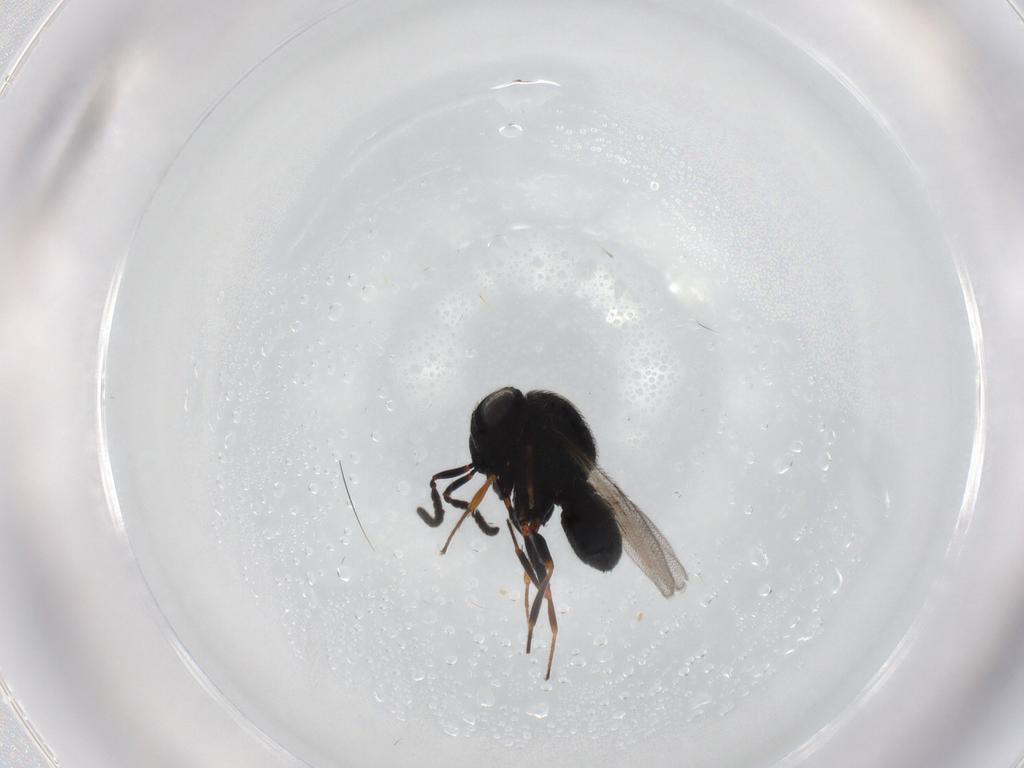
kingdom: Animalia
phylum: Arthropoda
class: Insecta
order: Hymenoptera
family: Scelionidae
